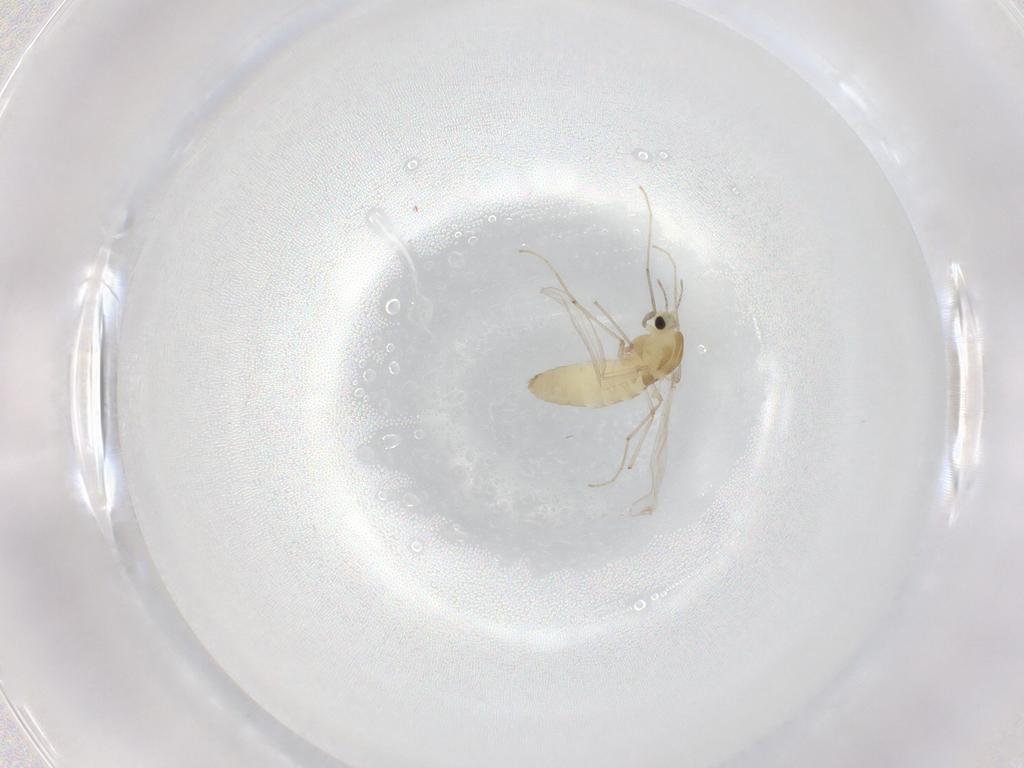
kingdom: Animalia
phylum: Arthropoda
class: Insecta
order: Diptera
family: Chironomidae
